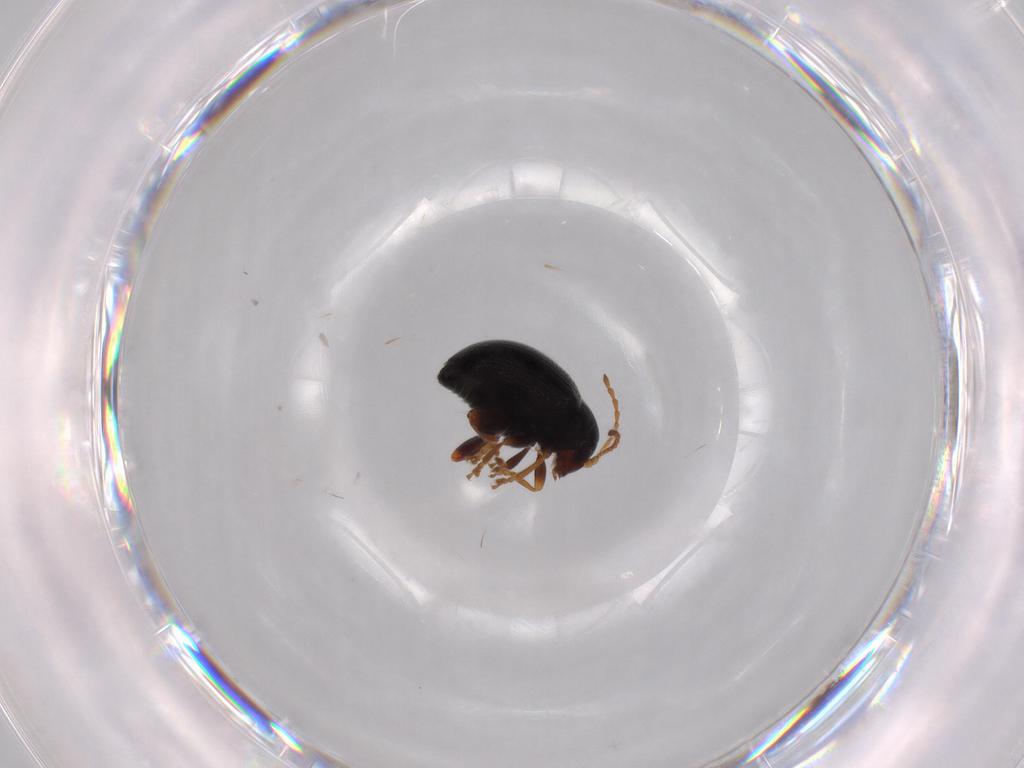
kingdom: Animalia
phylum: Arthropoda
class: Insecta
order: Coleoptera
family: Chrysomelidae
